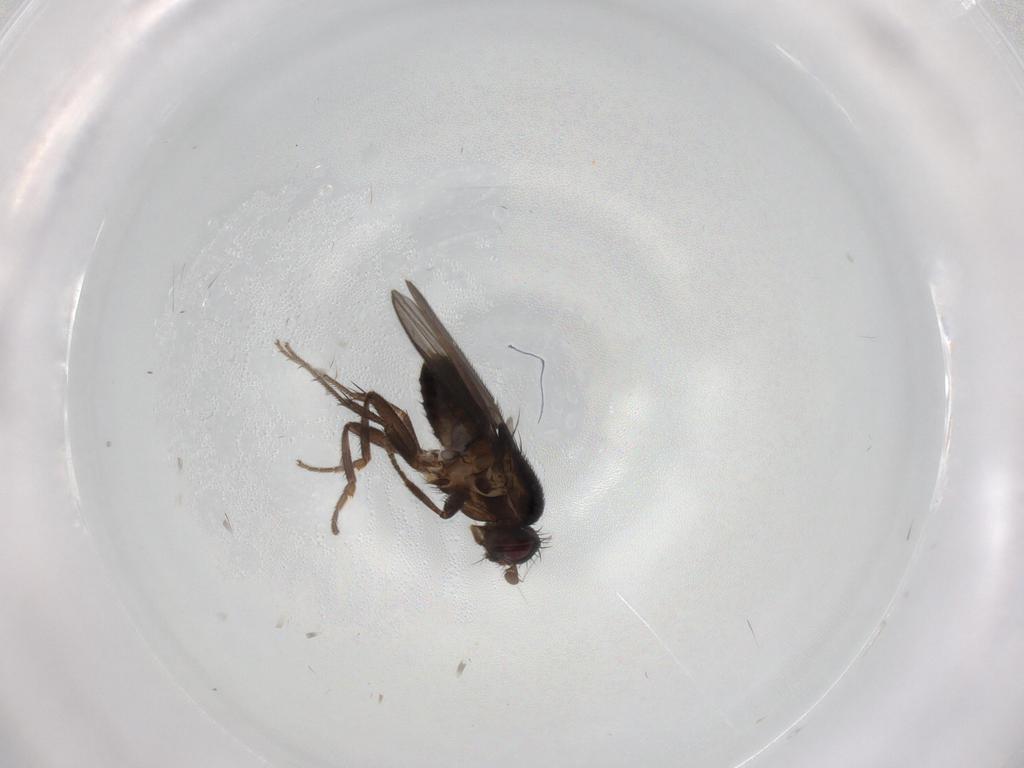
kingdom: Animalia
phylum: Arthropoda
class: Insecta
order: Diptera
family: Sphaeroceridae
